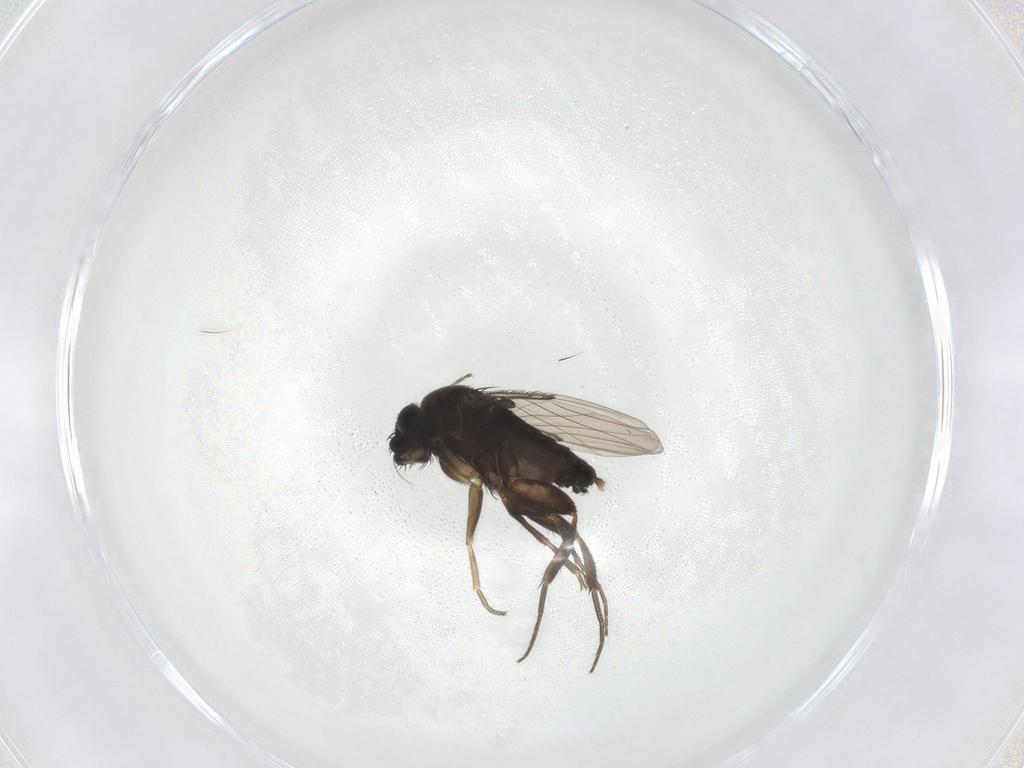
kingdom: Animalia
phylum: Arthropoda
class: Insecta
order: Diptera
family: Phoridae
